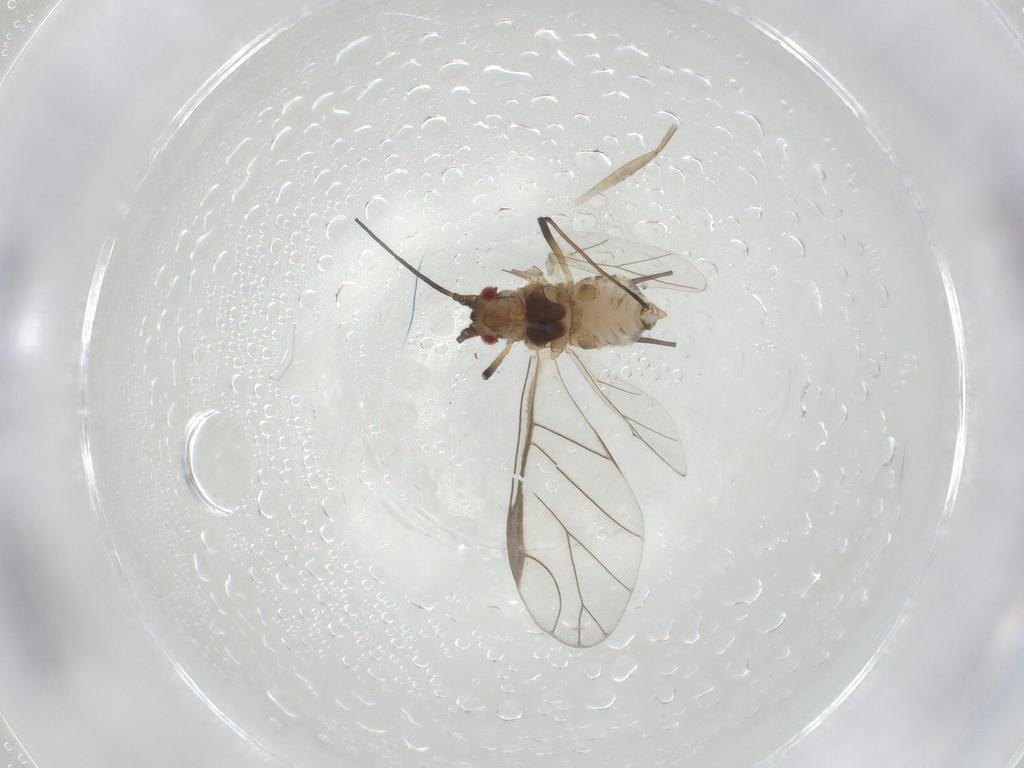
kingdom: Animalia
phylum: Arthropoda
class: Insecta
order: Hemiptera
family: Aphididae
